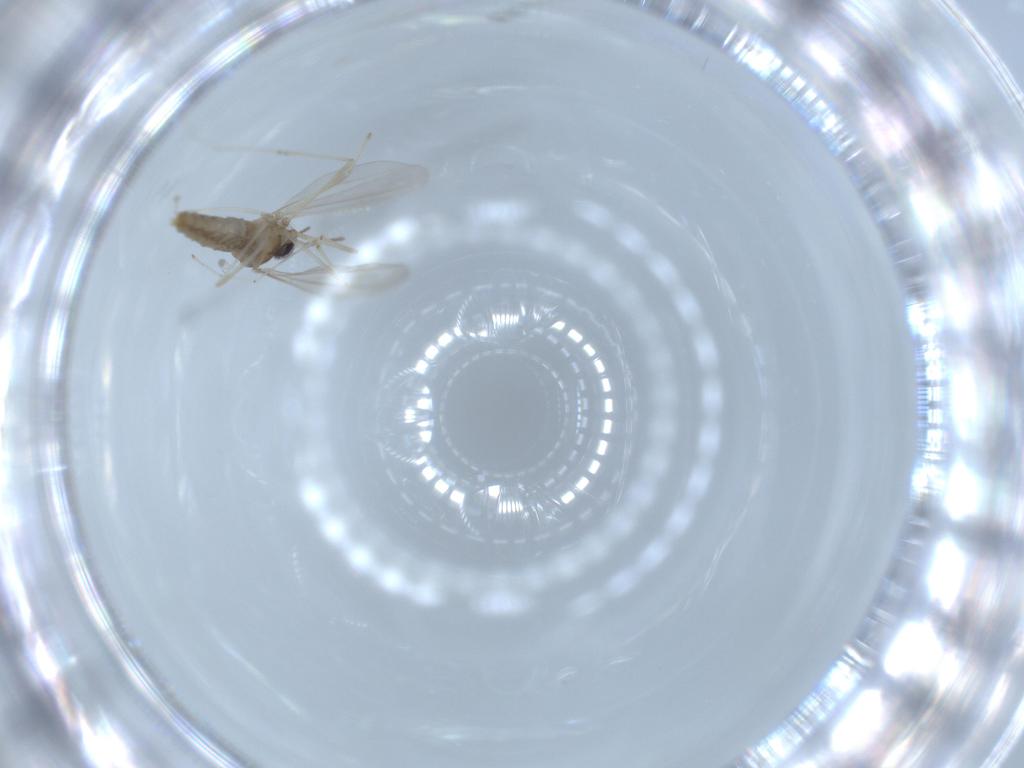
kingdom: Animalia
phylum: Arthropoda
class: Insecta
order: Diptera
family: Cecidomyiidae
